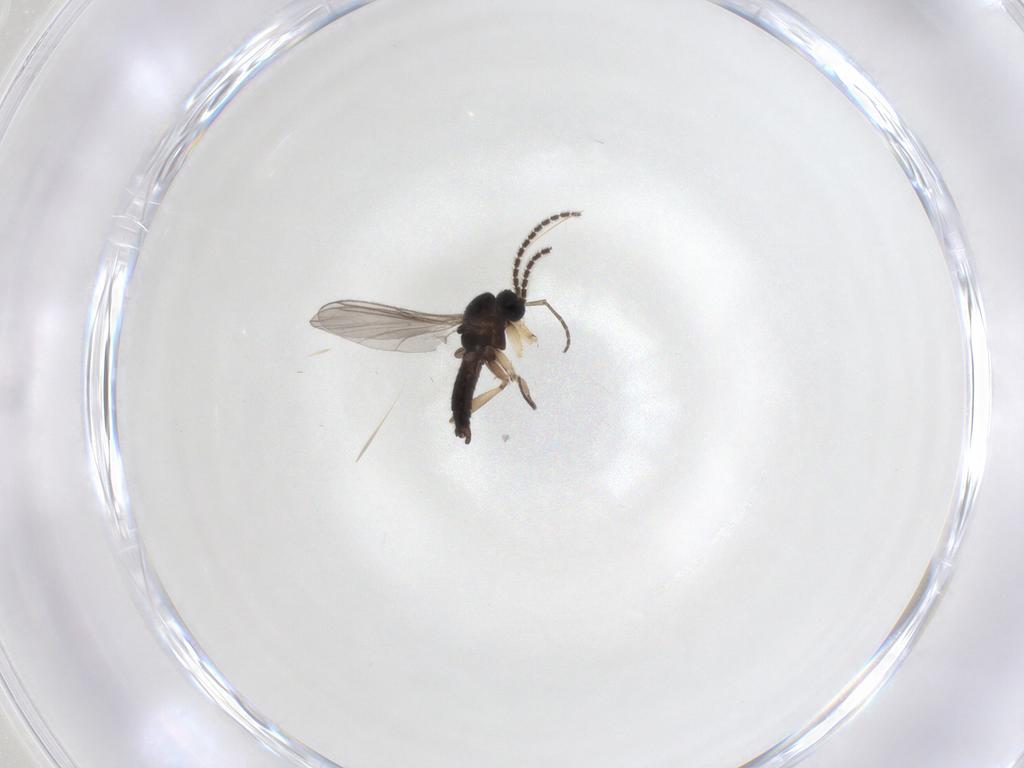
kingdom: Animalia
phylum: Arthropoda
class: Insecta
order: Diptera
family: Psychodidae
